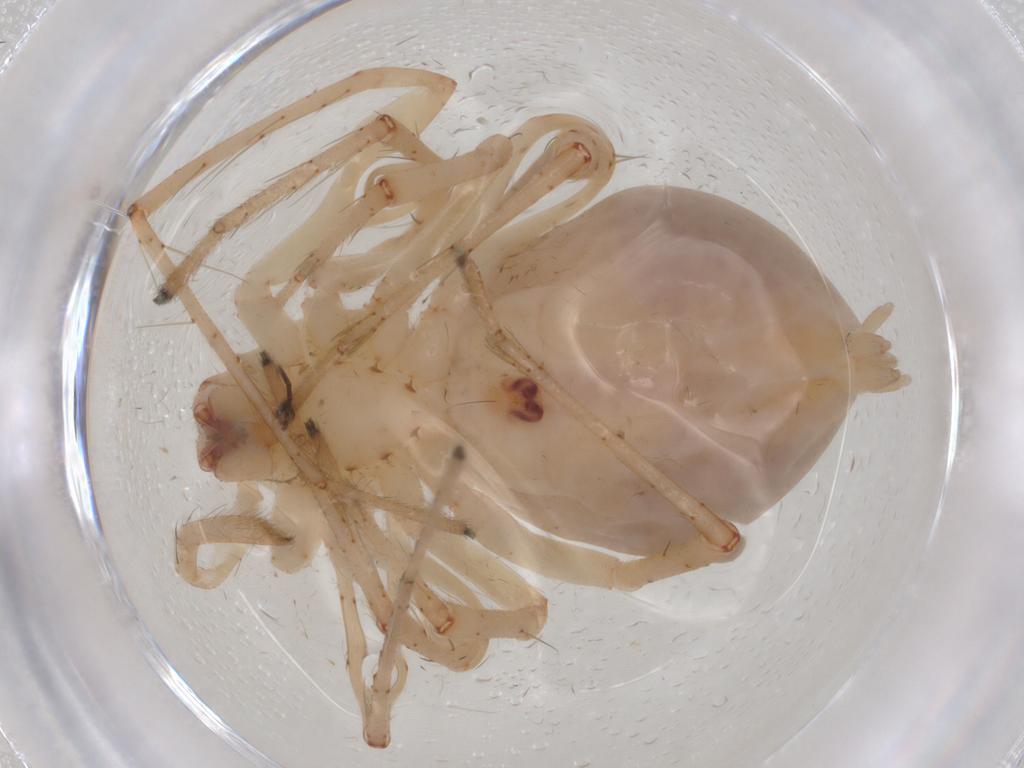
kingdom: Animalia
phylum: Arthropoda
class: Arachnida
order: Araneae
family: Anyphaenidae
